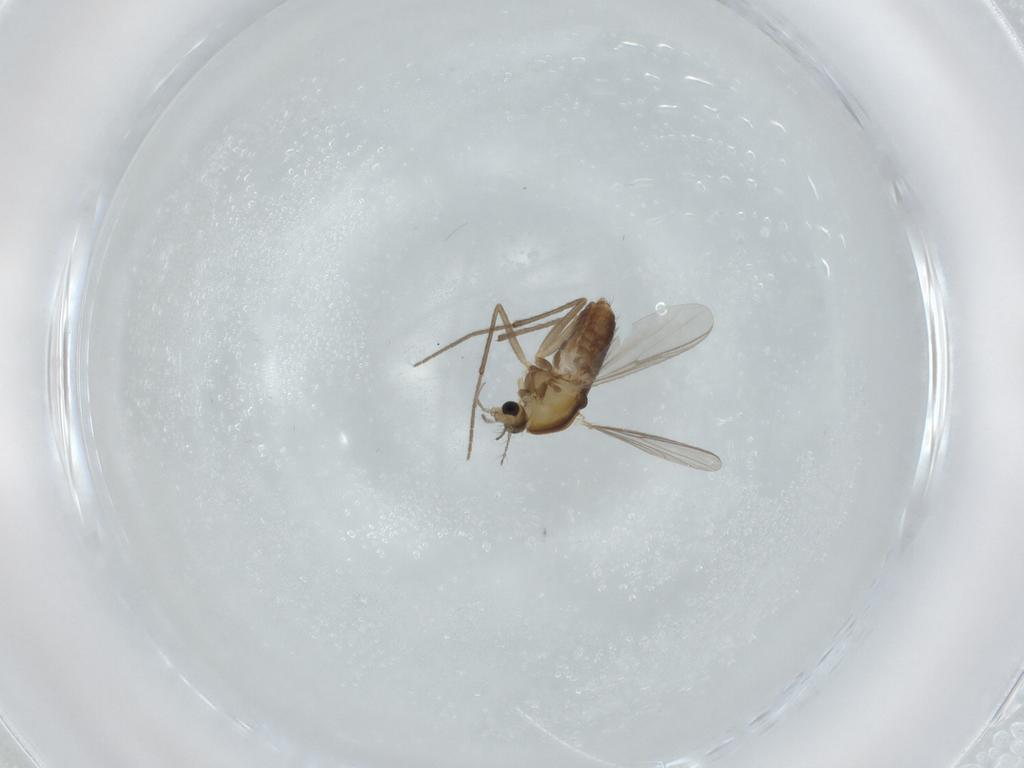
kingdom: Animalia
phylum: Arthropoda
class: Insecta
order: Diptera
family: Chironomidae
